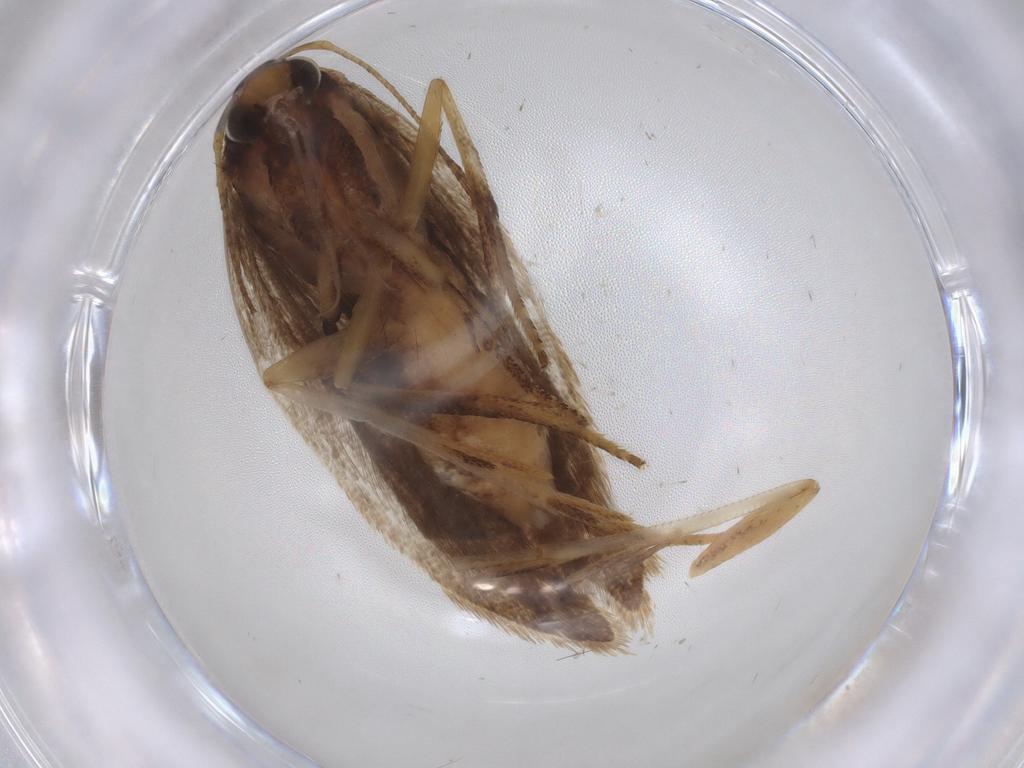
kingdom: Animalia
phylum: Arthropoda
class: Insecta
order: Lepidoptera
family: Gelechiidae
